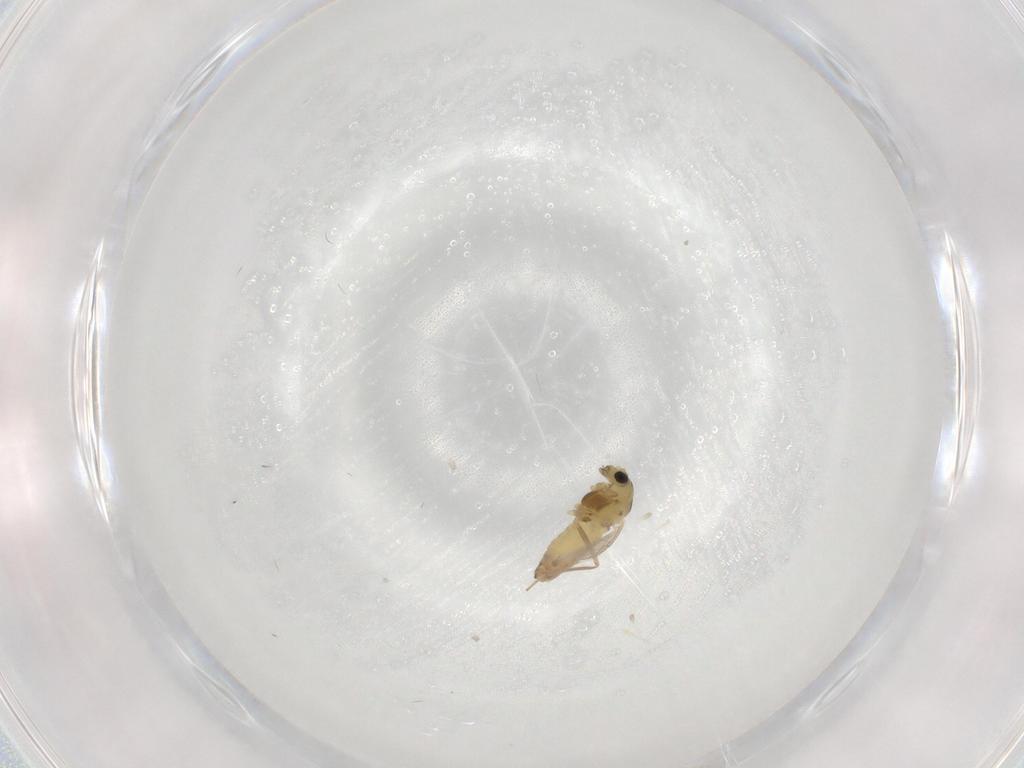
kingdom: Animalia
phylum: Arthropoda
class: Insecta
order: Diptera
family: Chironomidae
